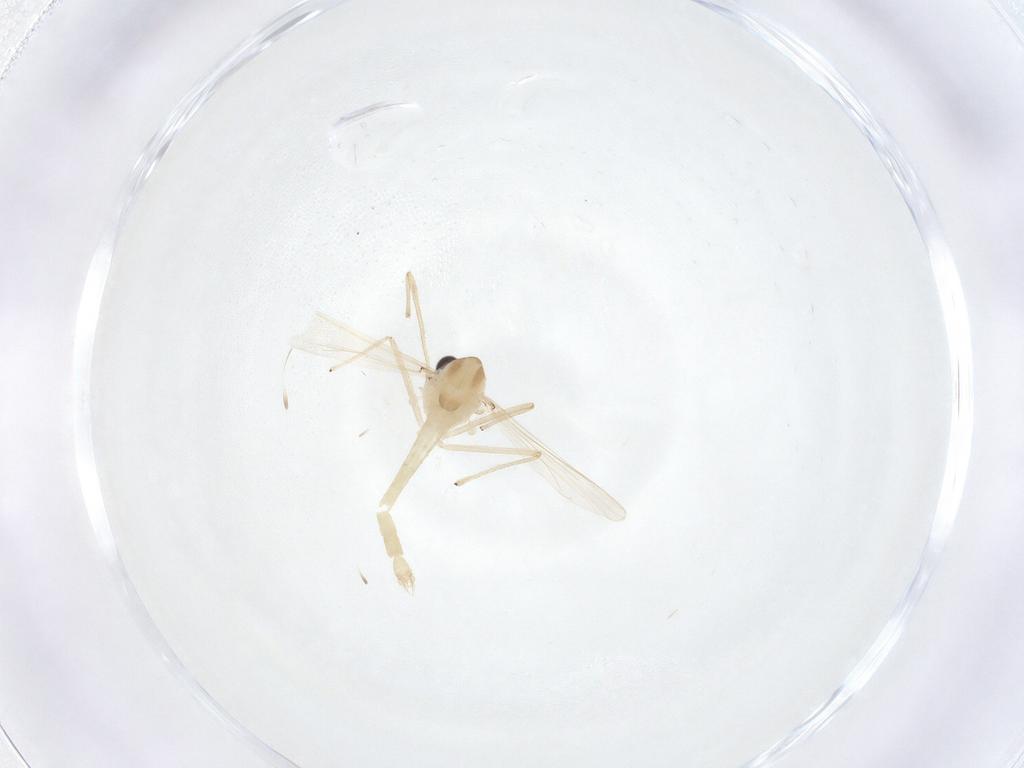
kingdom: Animalia
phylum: Arthropoda
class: Insecta
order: Diptera
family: Chironomidae
